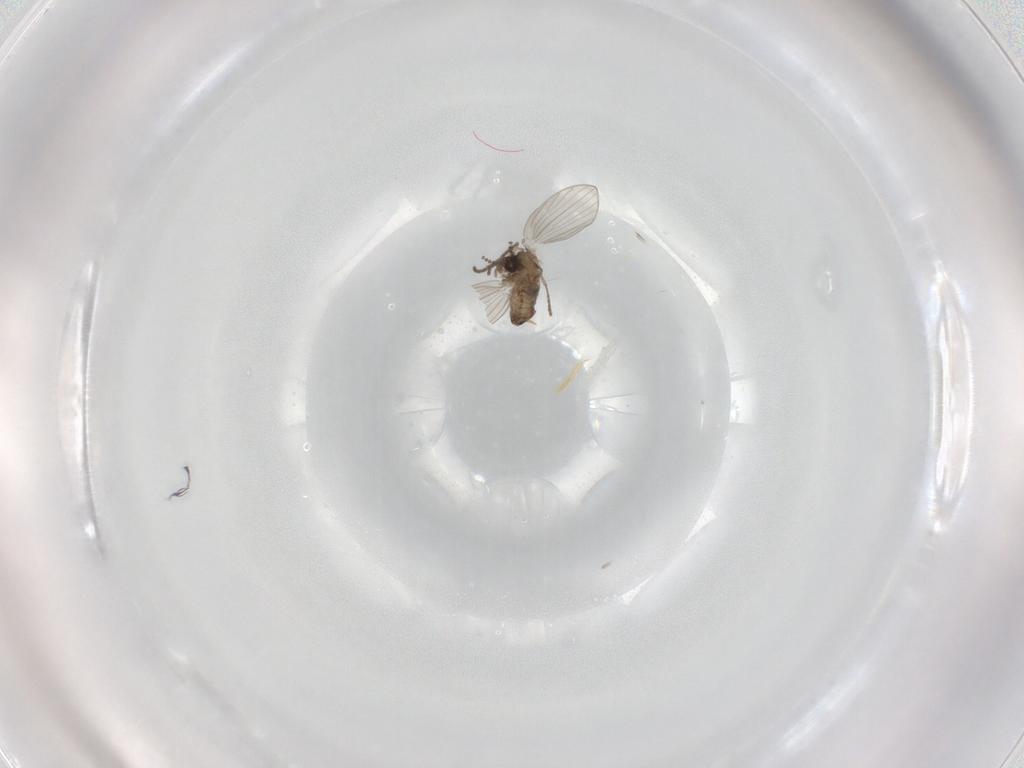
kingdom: Animalia
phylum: Arthropoda
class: Insecta
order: Diptera
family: Psychodidae
